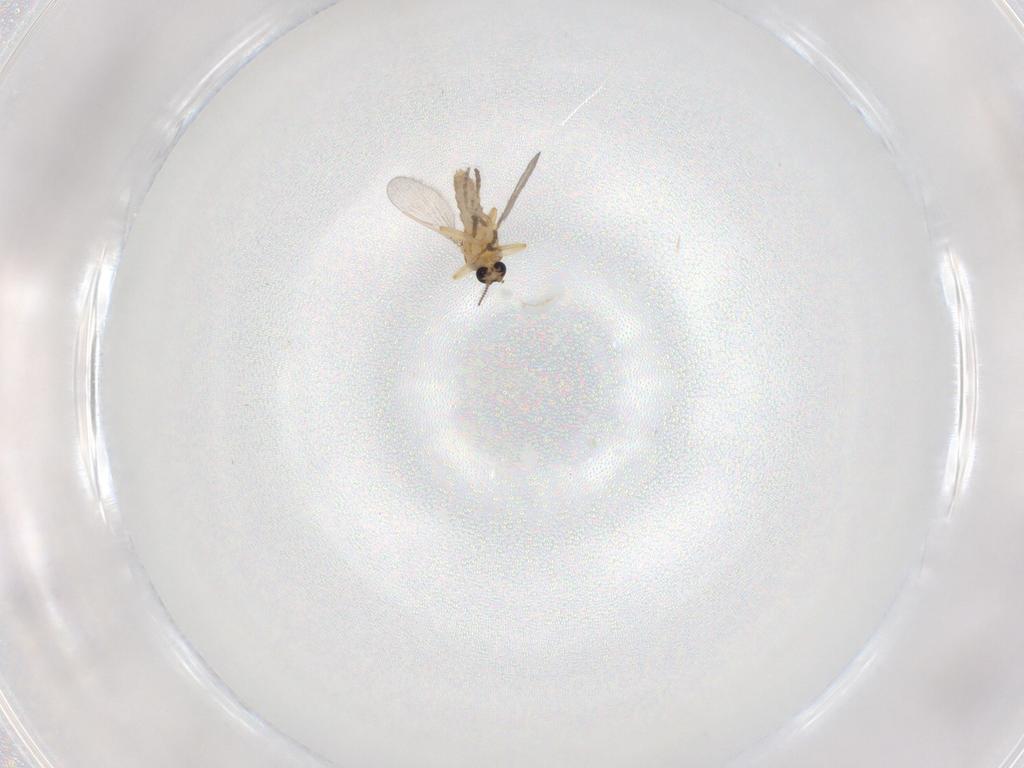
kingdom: Animalia
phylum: Arthropoda
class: Insecta
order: Diptera
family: Ceratopogonidae
